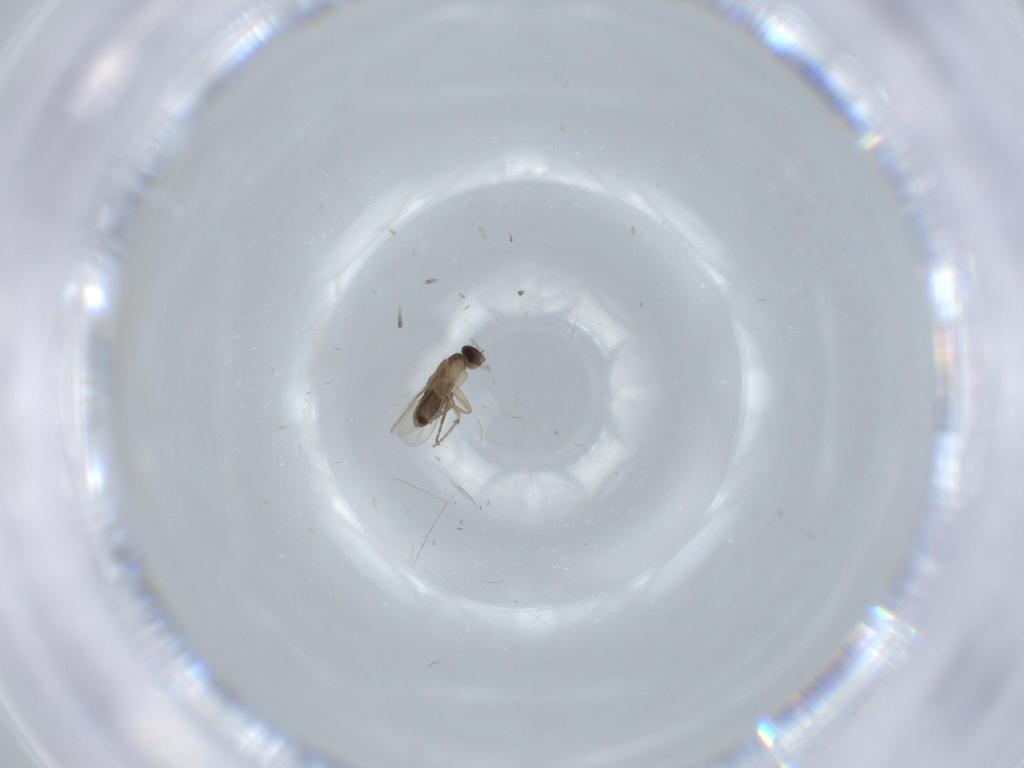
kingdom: Animalia
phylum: Arthropoda
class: Insecta
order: Diptera
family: Phoridae
